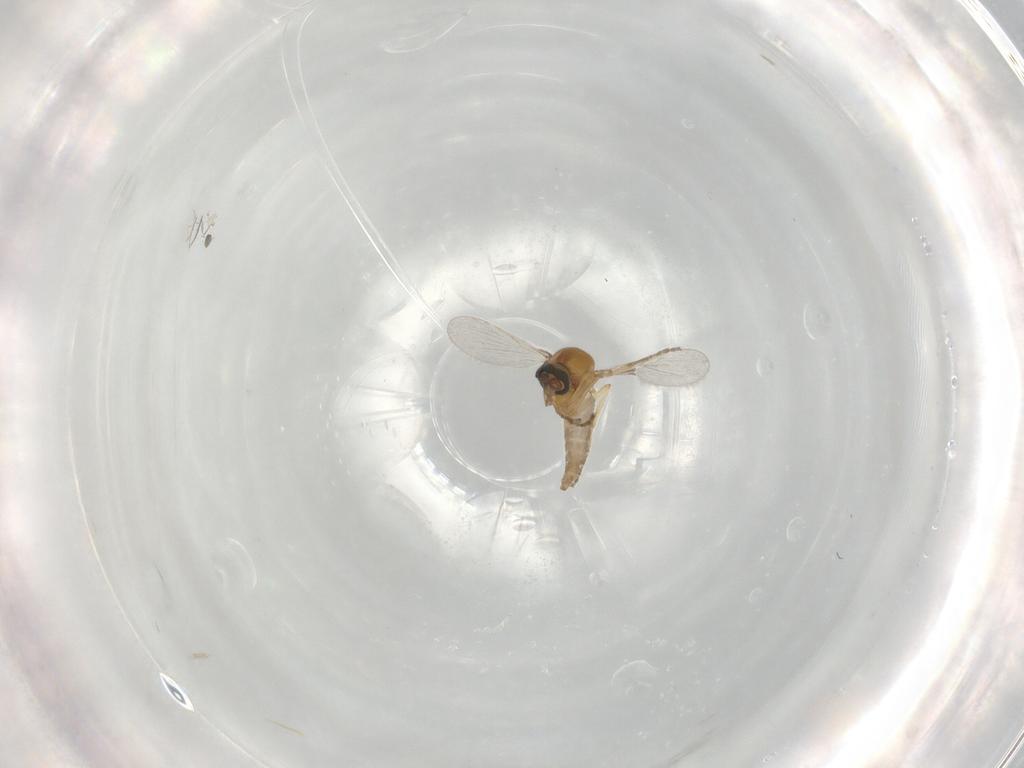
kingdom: Animalia
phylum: Arthropoda
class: Insecta
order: Diptera
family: Ceratopogonidae
